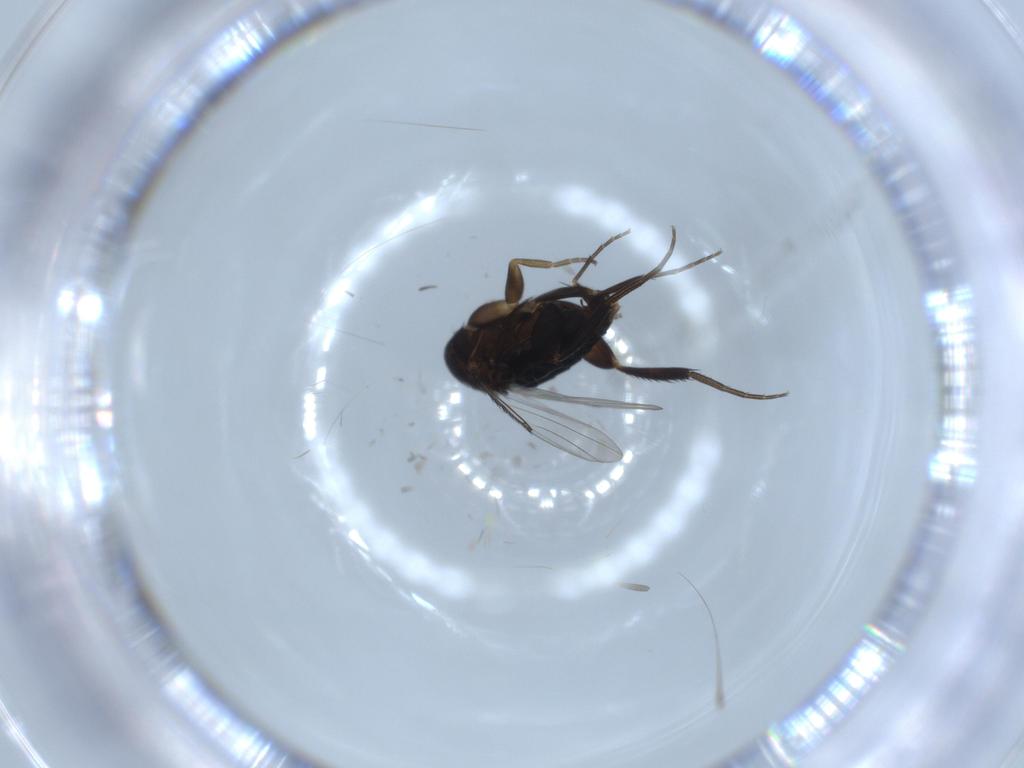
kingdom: Animalia
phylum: Arthropoda
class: Insecta
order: Diptera
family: Phoridae
